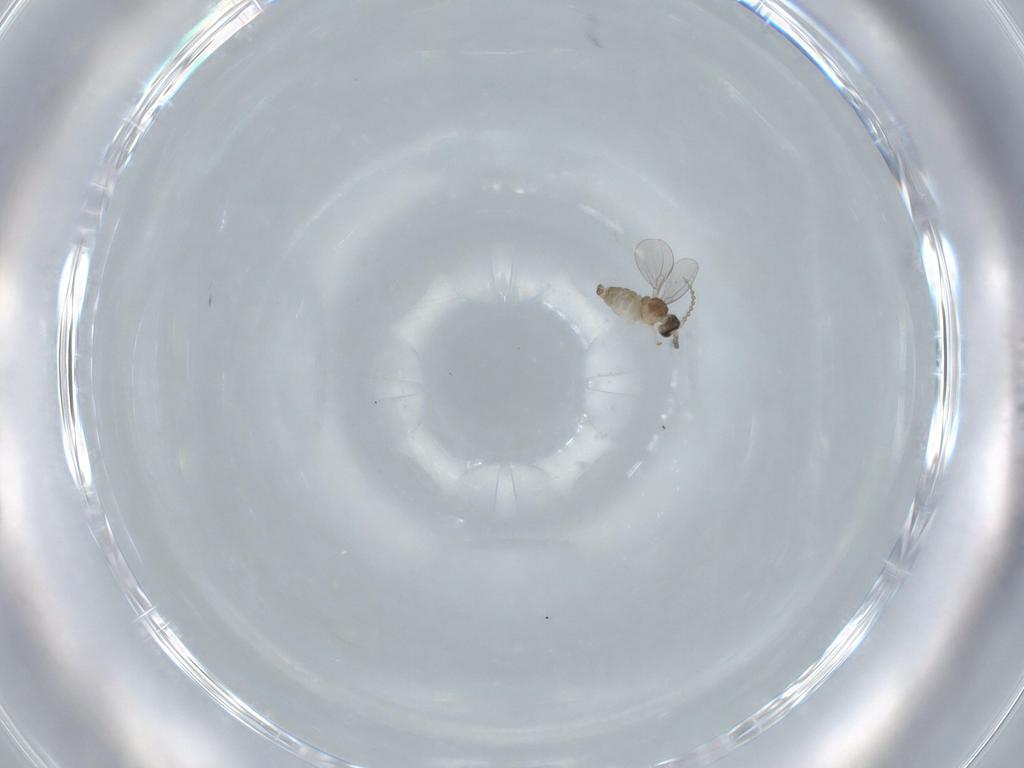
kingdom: Animalia
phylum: Arthropoda
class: Insecta
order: Diptera
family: Cecidomyiidae
